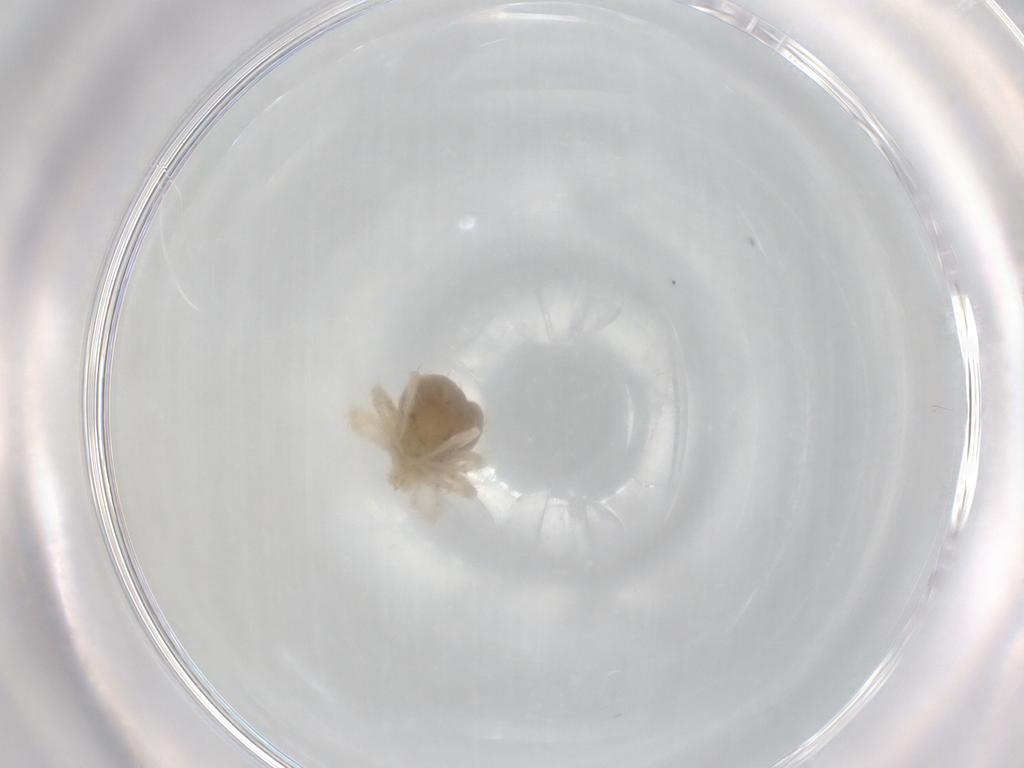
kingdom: Animalia
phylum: Arthropoda
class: Arachnida
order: Trombidiformes
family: Anystidae
